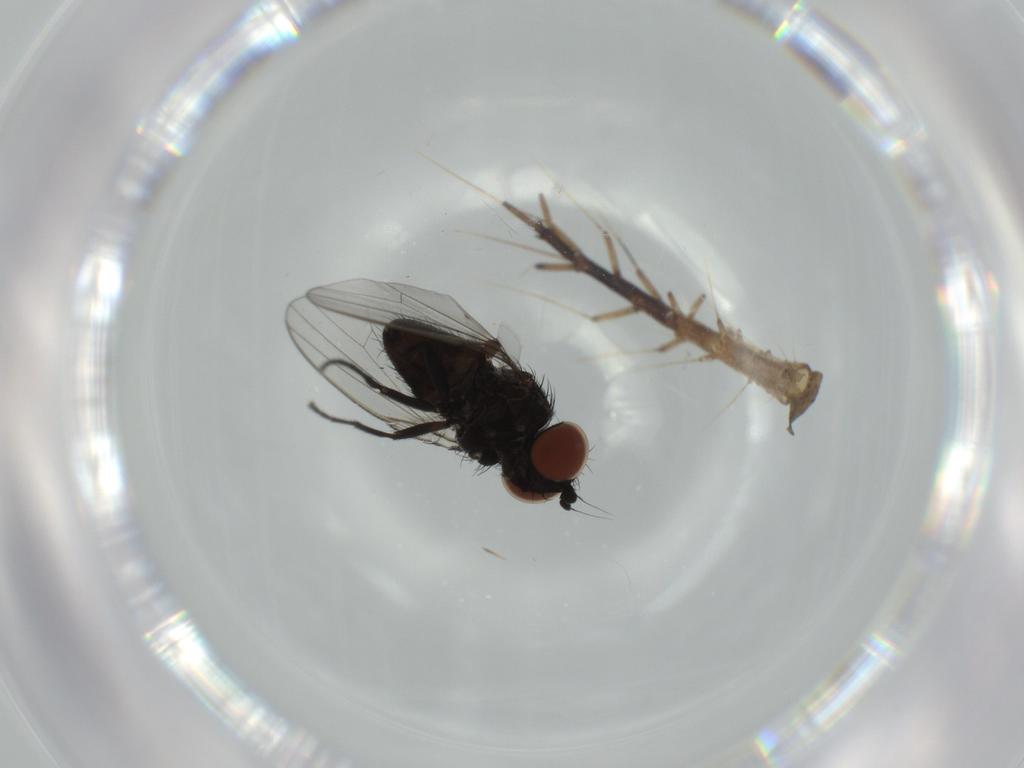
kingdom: Animalia
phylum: Arthropoda
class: Insecta
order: Diptera
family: Milichiidae
